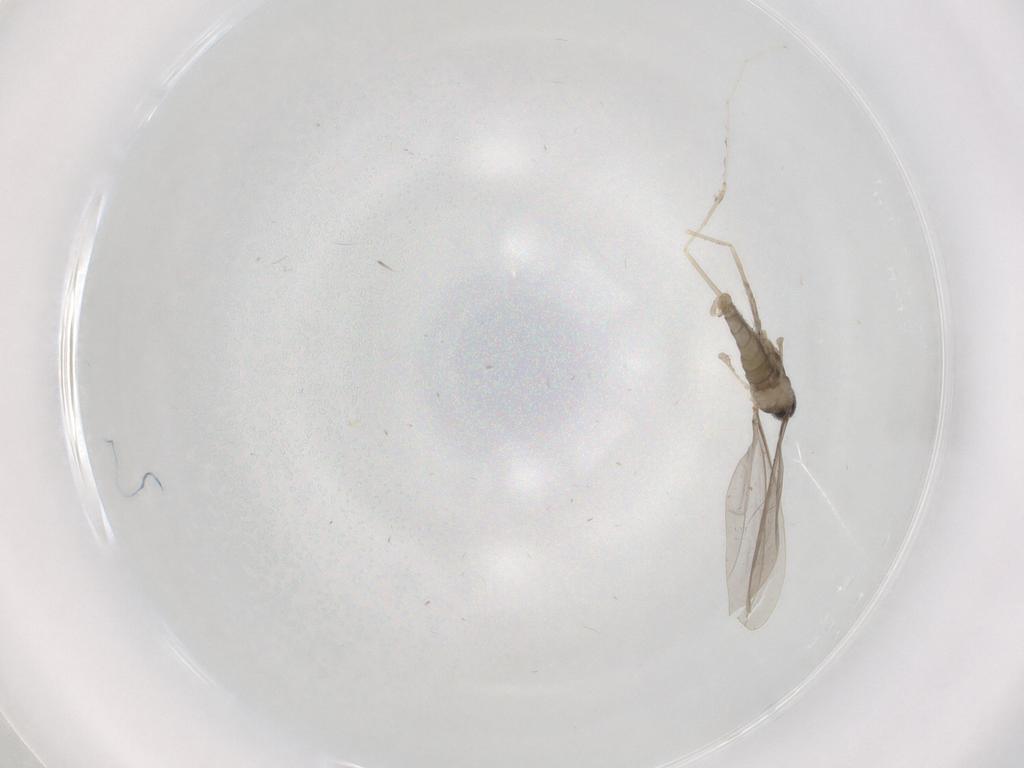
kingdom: Animalia
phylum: Arthropoda
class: Insecta
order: Diptera
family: Cecidomyiidae
